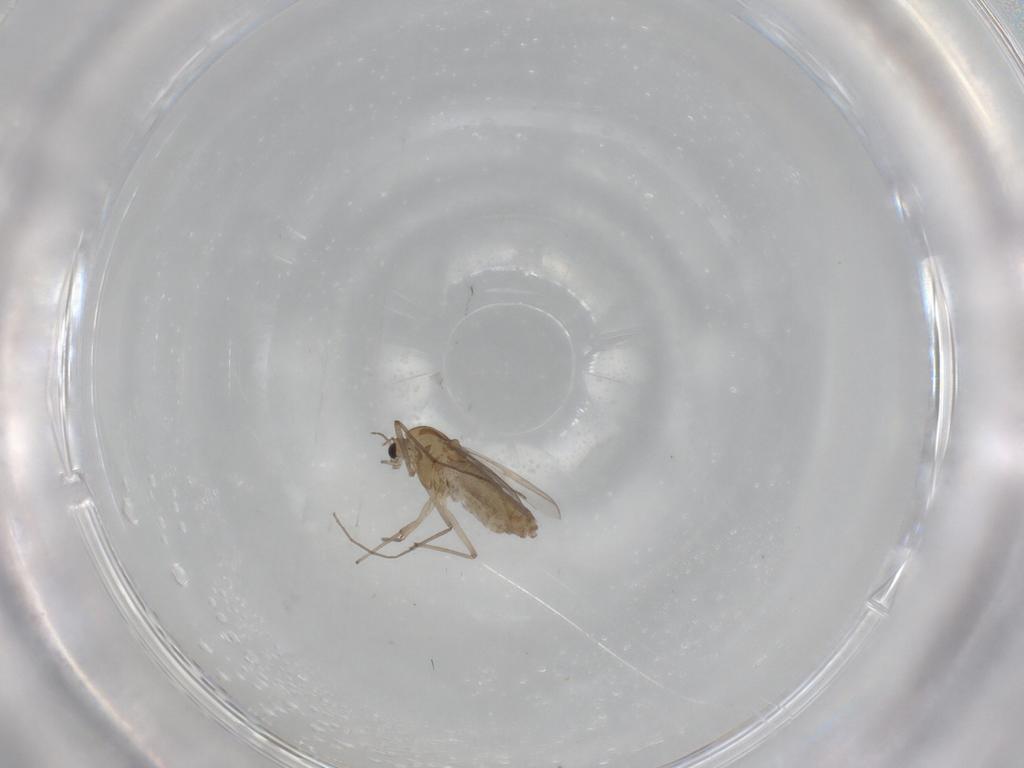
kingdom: Animalia
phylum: Arthropoda
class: Insecta
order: Diptera
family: Chironomidae
